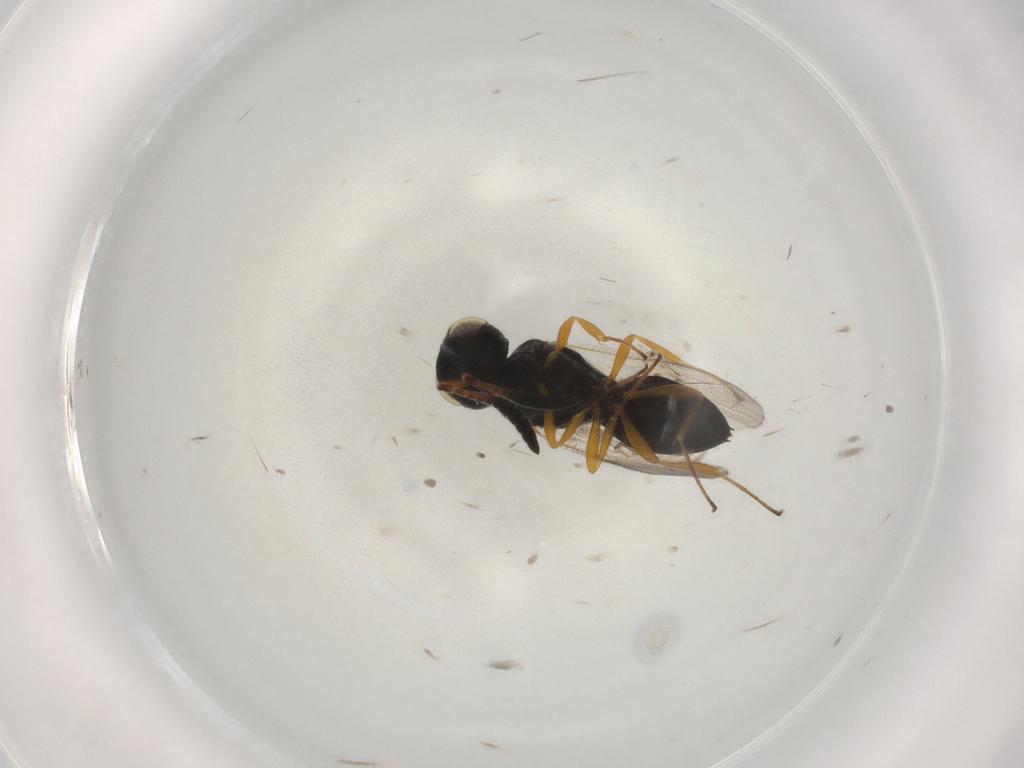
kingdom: Animalia
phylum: Arthropoda
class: Insecta
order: Hymenoptera
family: Scelionidae
